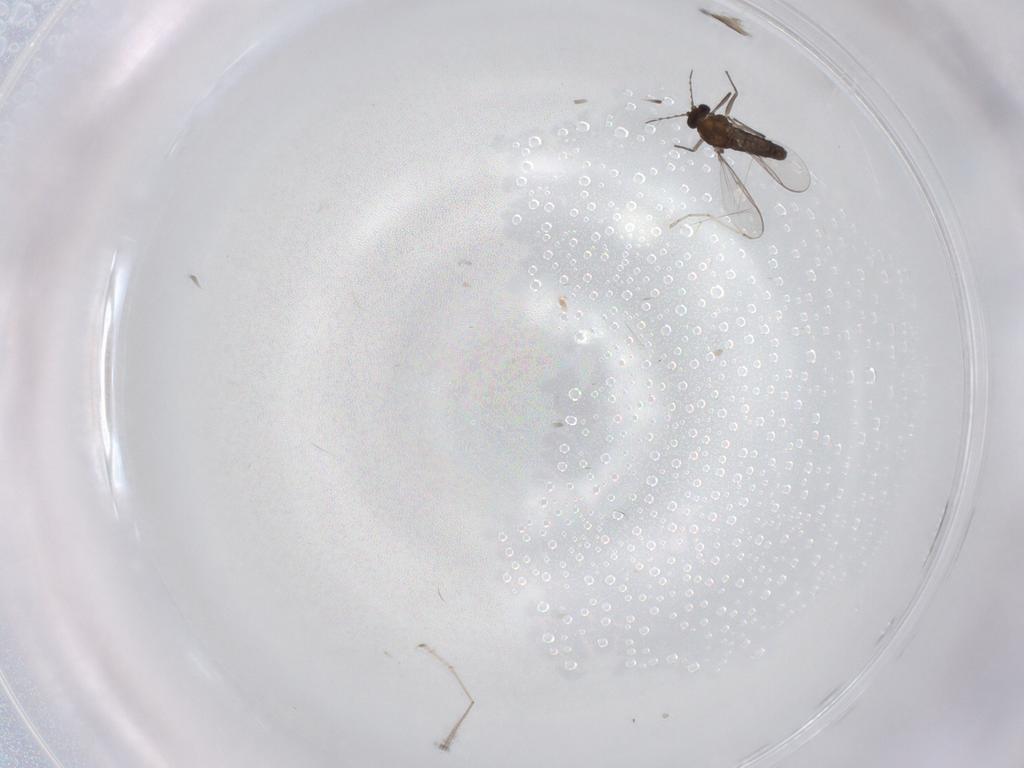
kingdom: Animalia
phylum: Arthropoda
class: Insecta
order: Diptera
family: Chironomidae
